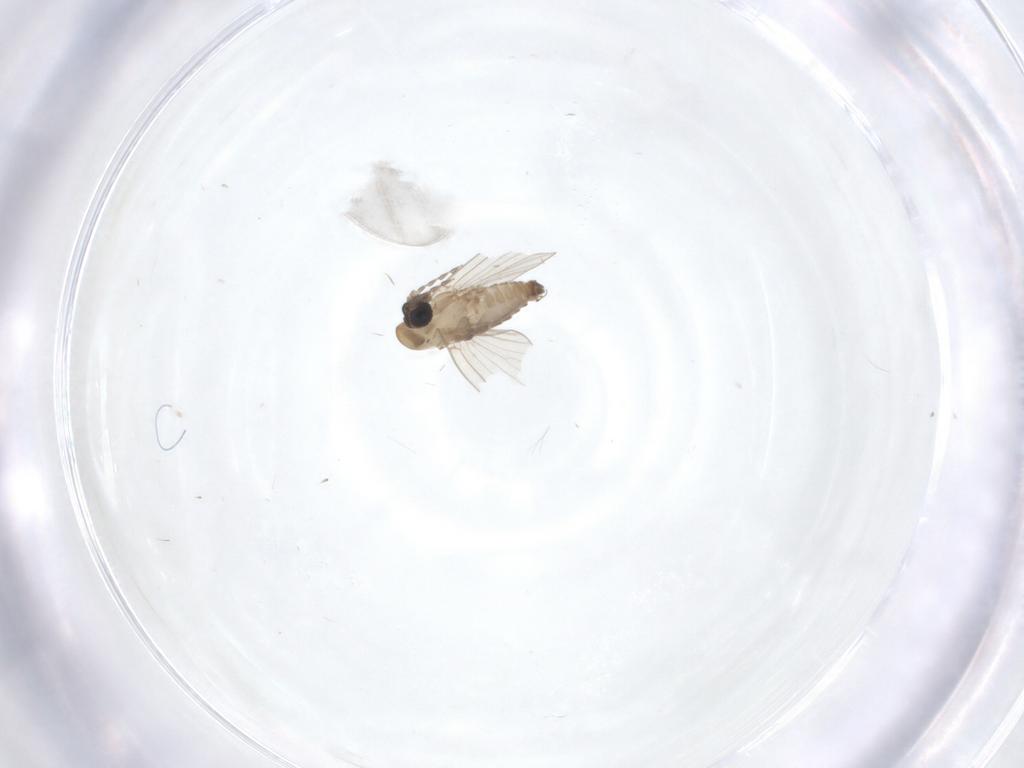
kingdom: Animalia
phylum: Arthropoda
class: Insecta
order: Diptera
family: Psychodidae
